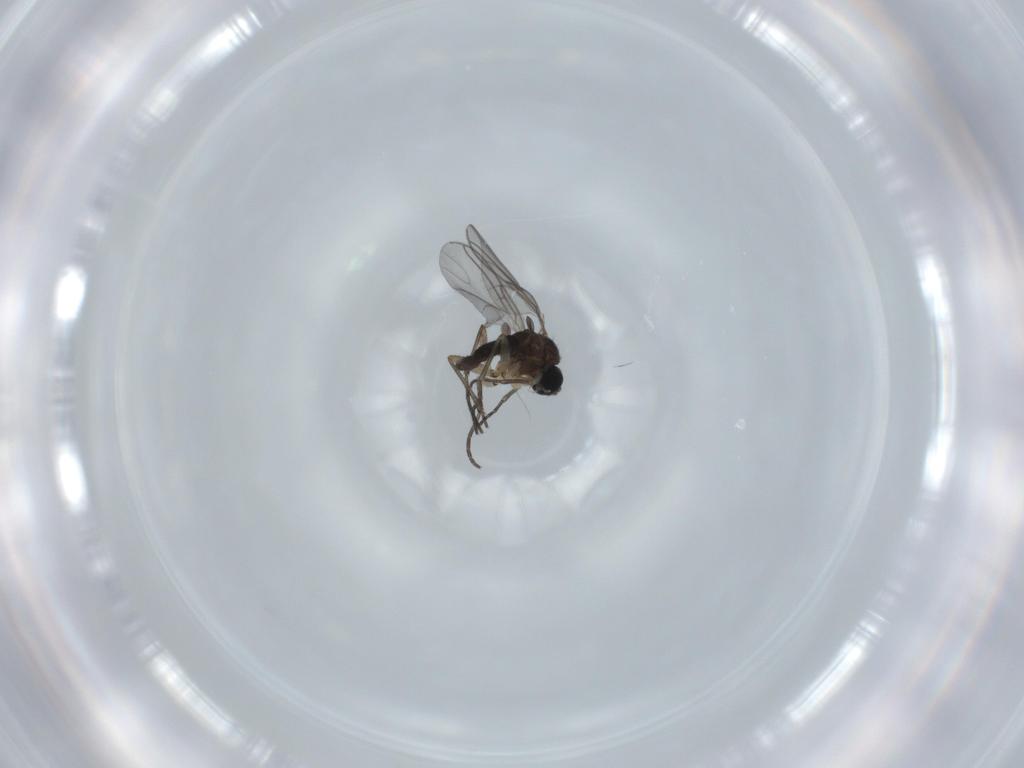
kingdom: Animalia
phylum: Arthropoda
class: Insecta
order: Diptera
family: Sciaridae
